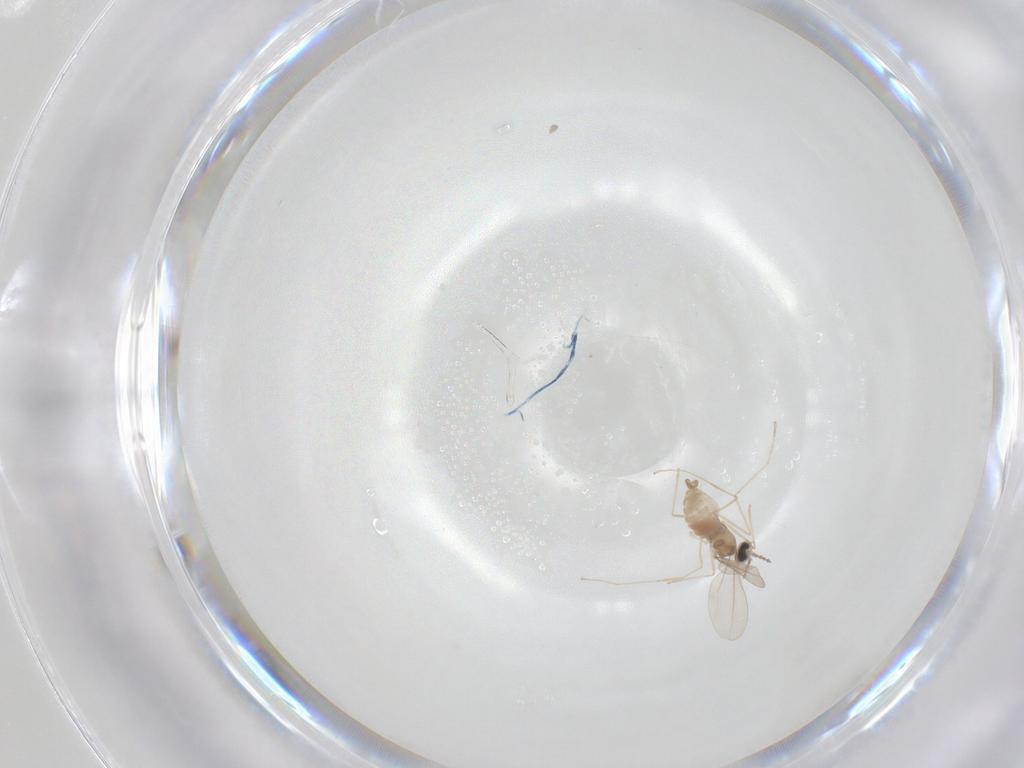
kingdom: Animalia
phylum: Arthropoda
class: Insecta
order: Diptera
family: Cecidomyiidae
